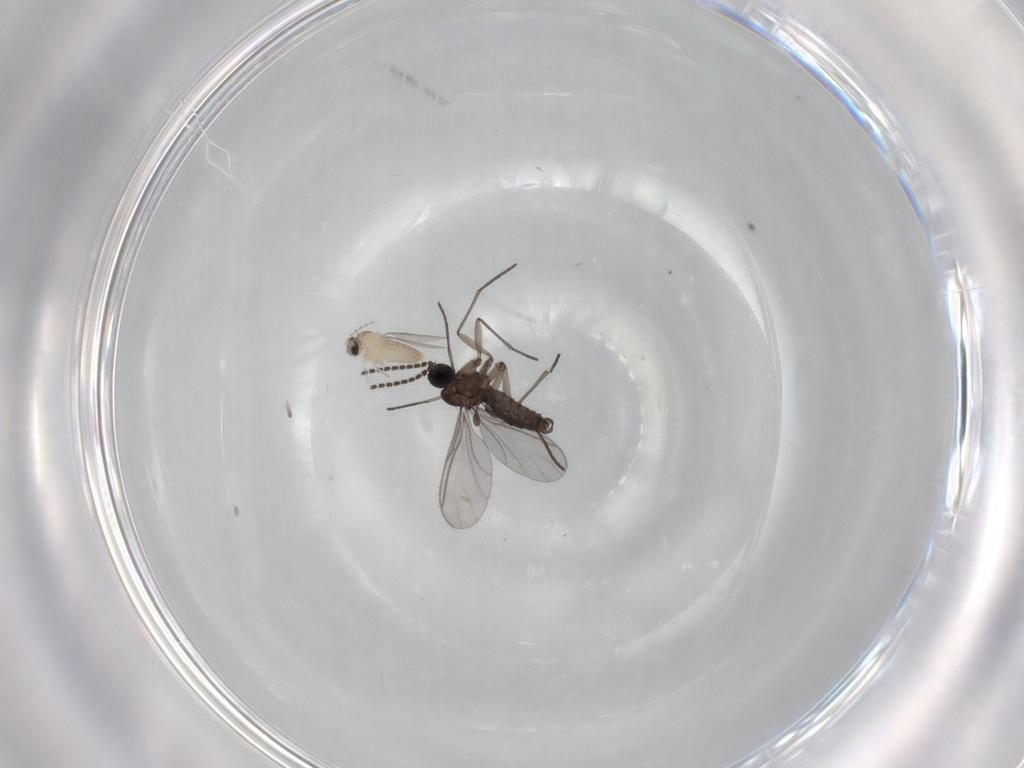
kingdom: Animalia
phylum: Arthropoda
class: Insecta
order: Diptera
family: Cecidomyiidae
